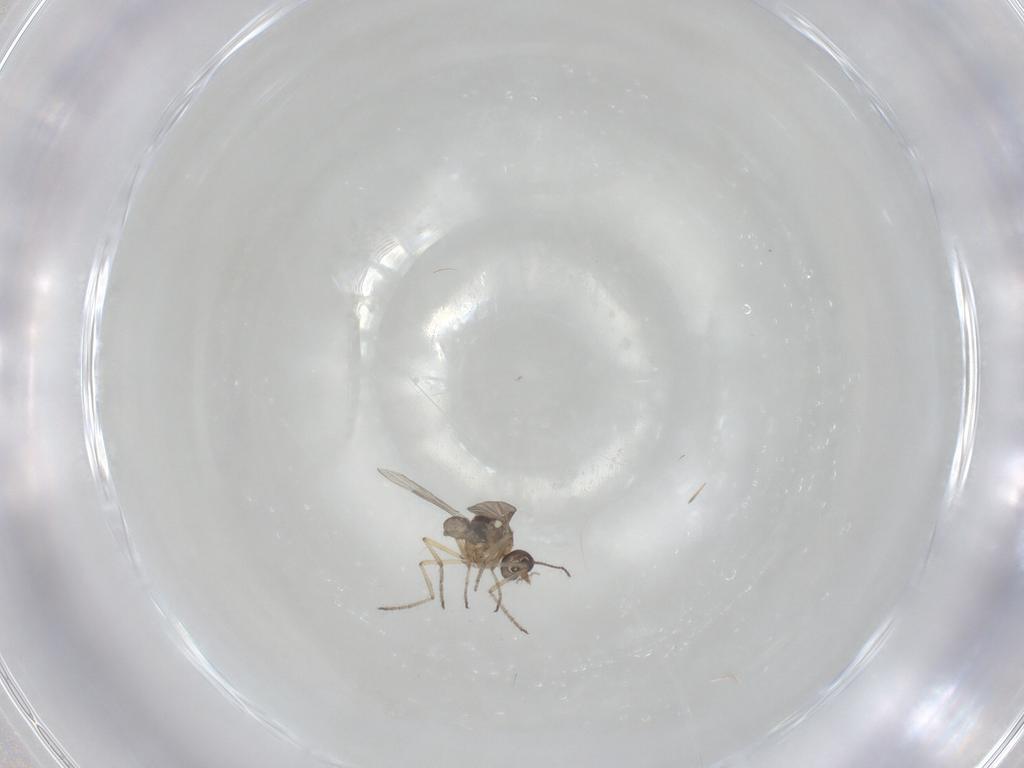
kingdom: Animalia
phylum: Arthropoda
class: Insecta
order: Diptera
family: Ceratopogonidae
